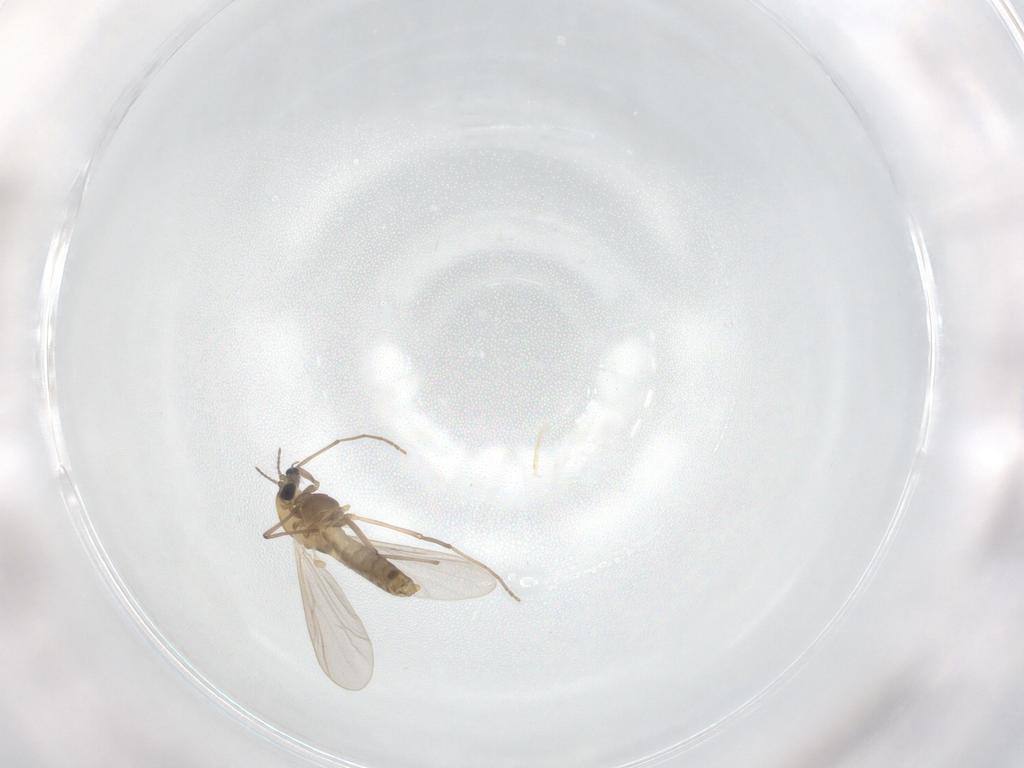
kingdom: Animalia
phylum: Arthropoda
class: Insecta
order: Diptera
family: Chironomidae
